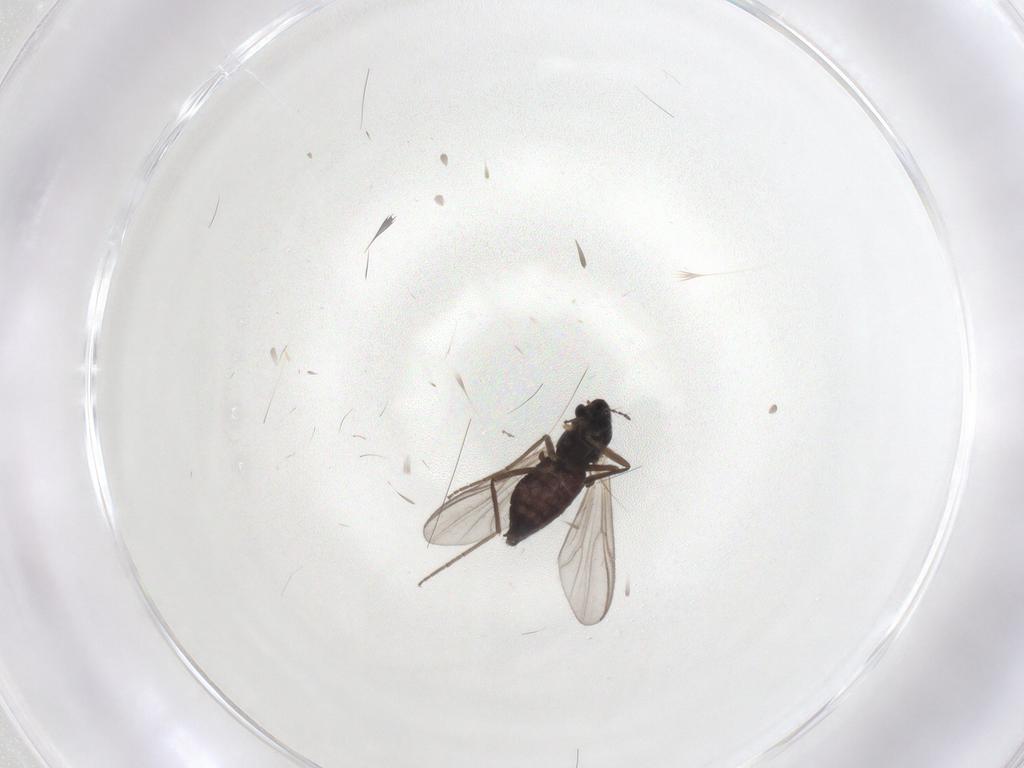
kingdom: Animalia
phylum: Arthropoda
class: Insecta
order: Diptera
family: Chironomidae
